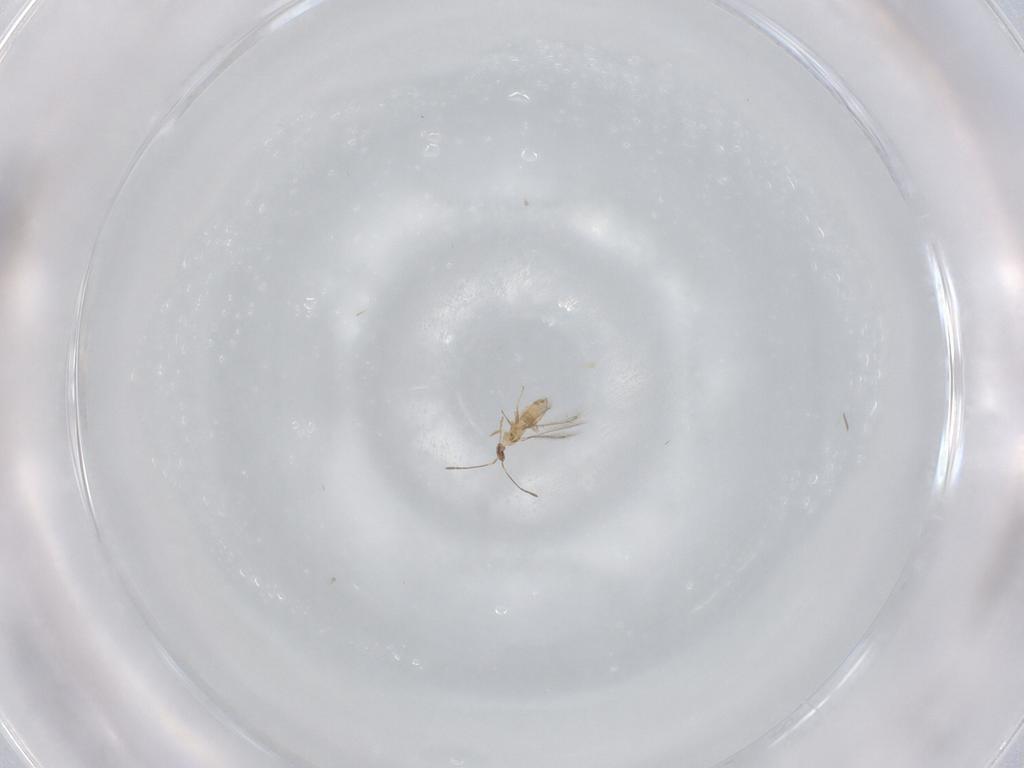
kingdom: Animalia
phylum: Arthropoda
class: Insecta
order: Hymenoptera
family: Mymaridae
